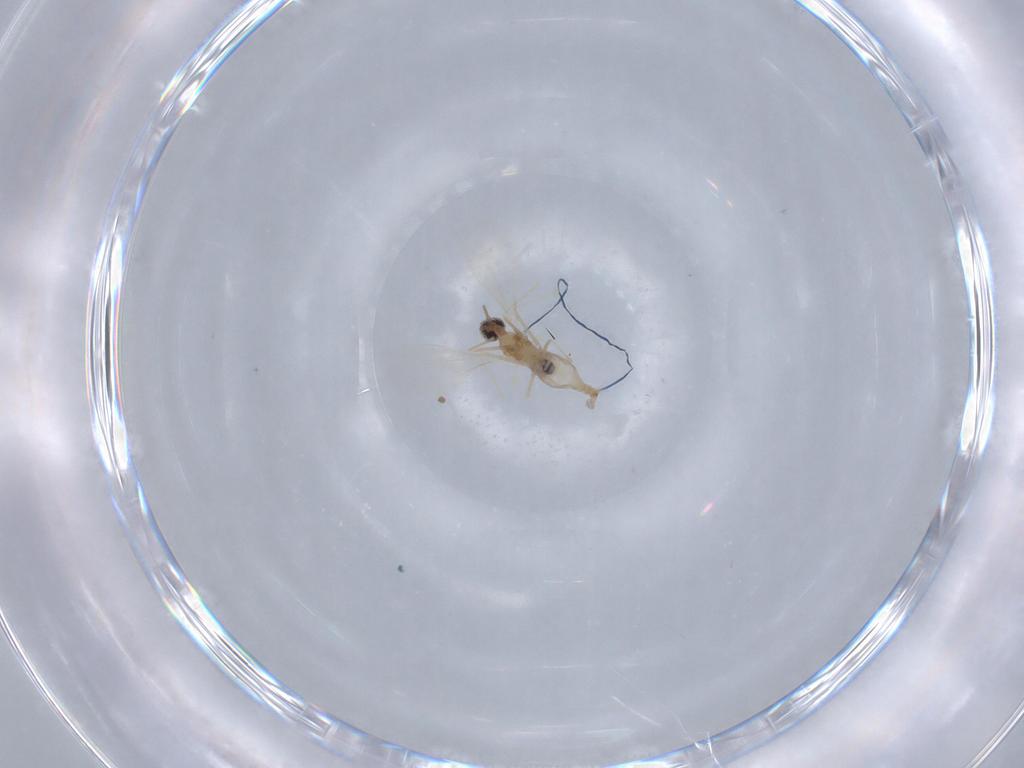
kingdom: Animalia
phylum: Arthropoda
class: Insecta
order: Diptera
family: Cecidomyiidae
